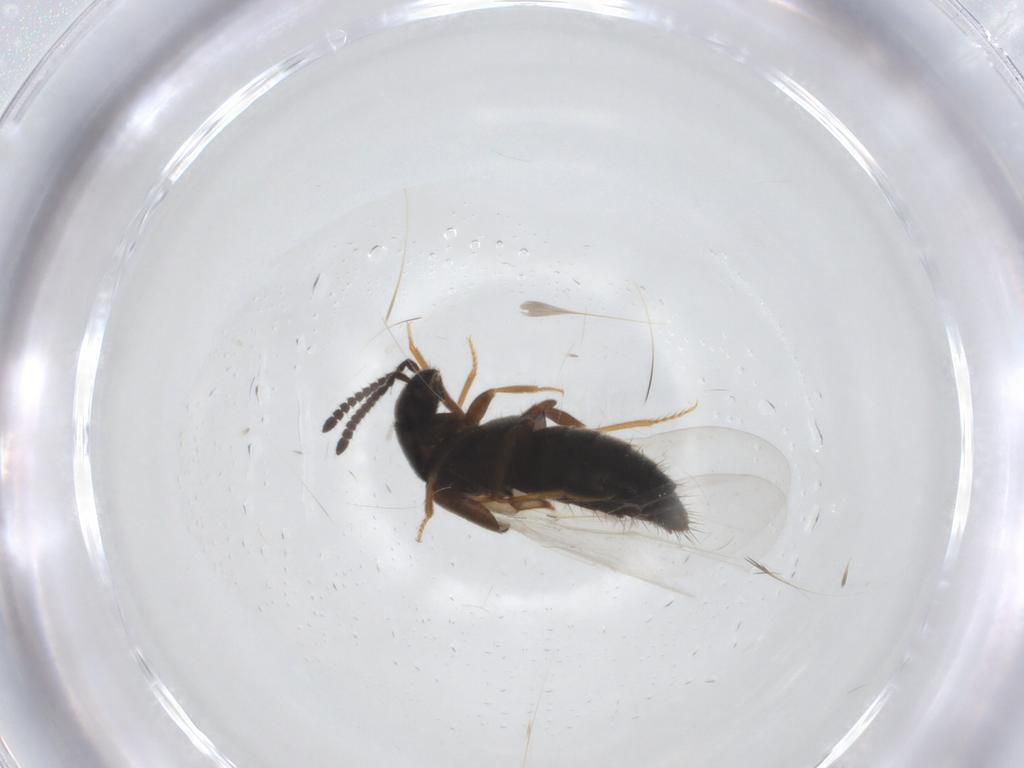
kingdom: Animalia
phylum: Arthropoda
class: Insecta
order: Coleoptera
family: Staphylinidae
